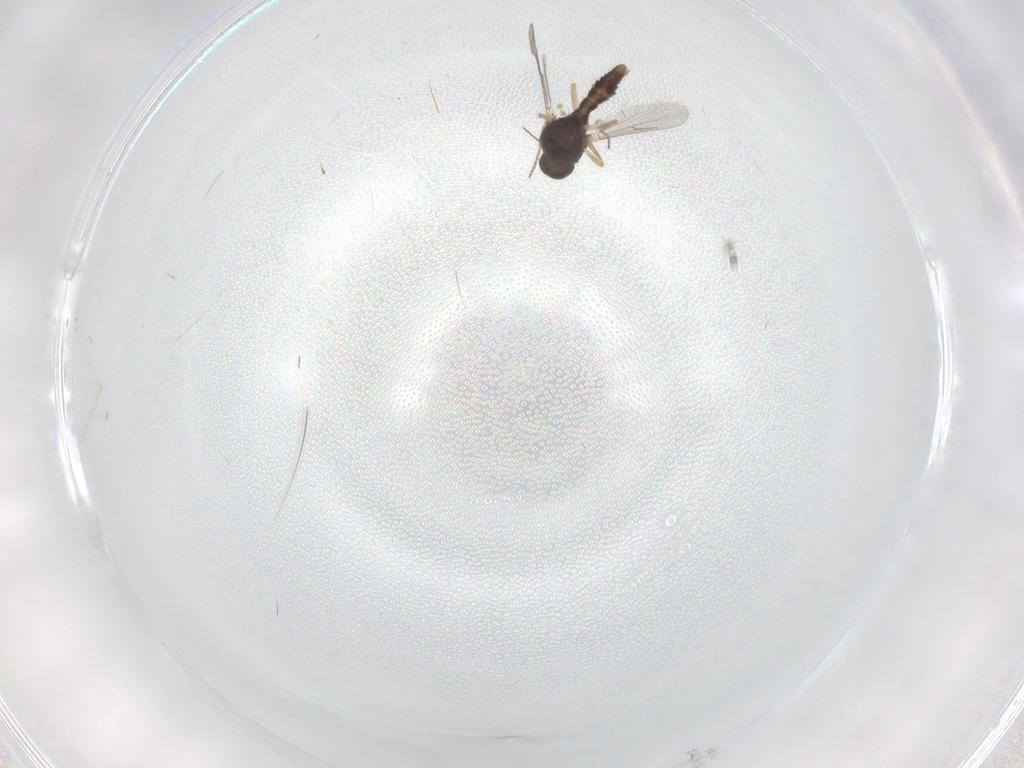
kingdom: Animalia
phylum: Arthropoda
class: Insecta
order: Diptera
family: Ceratopogonidae
